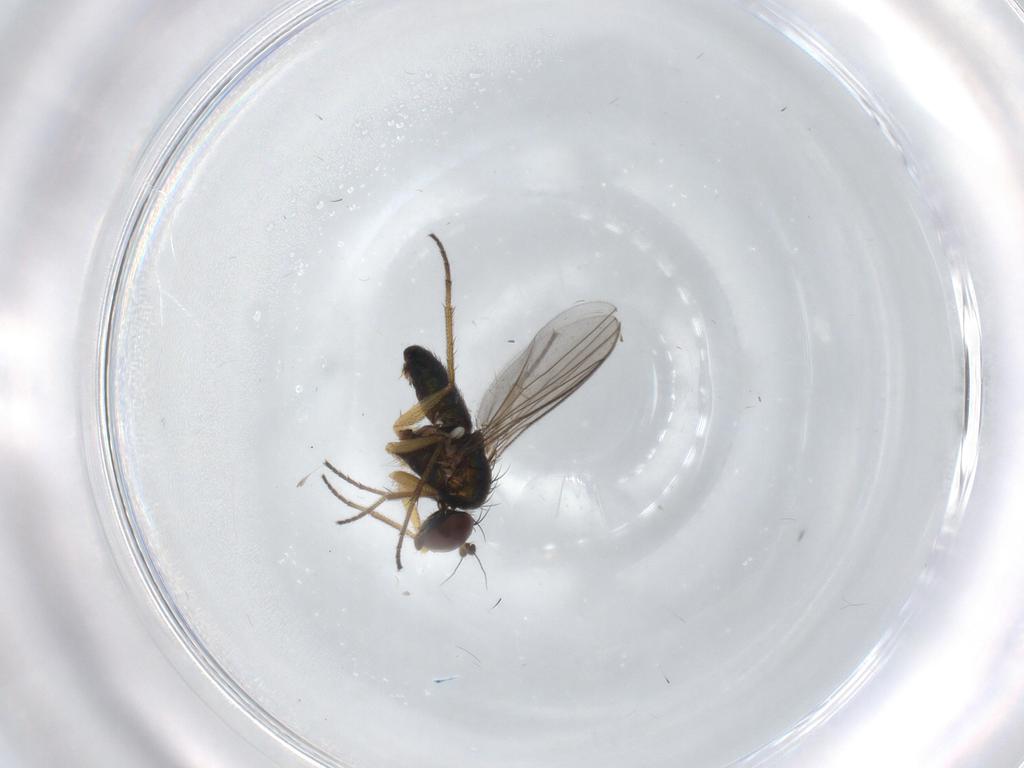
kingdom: Animalia
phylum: Arthropoda
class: Insecta
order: Diptera
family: Dolichopodidae
